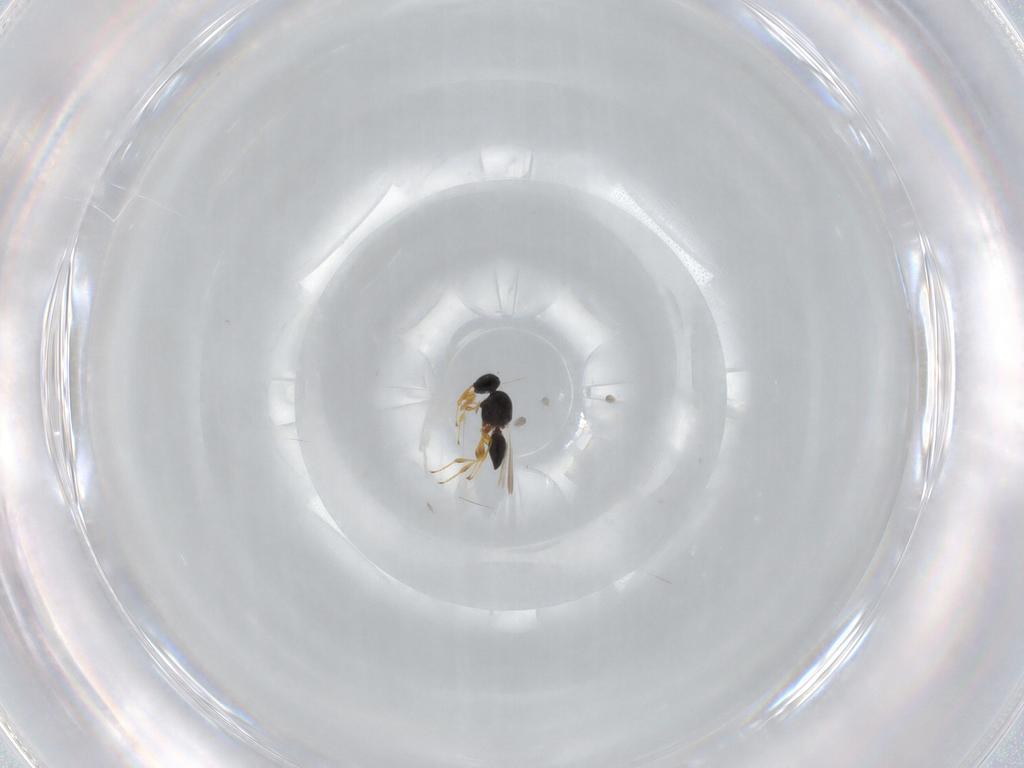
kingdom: Animalia
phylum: Arthropoda
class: Insecta
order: Hymenoptera
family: Platygastridae
